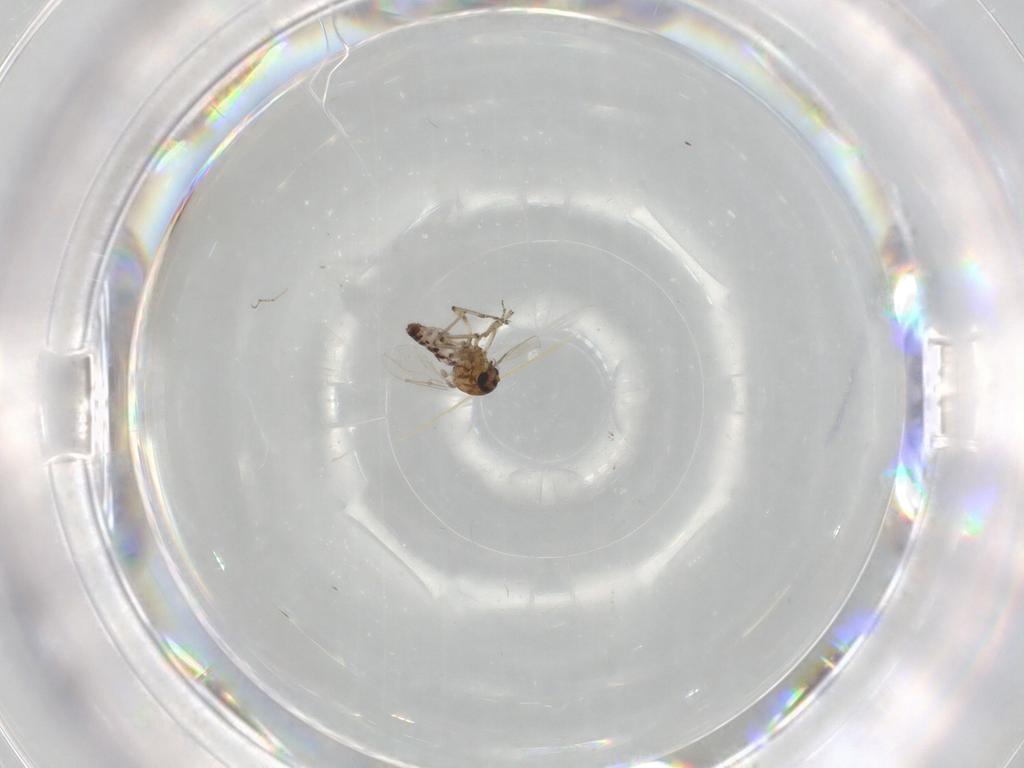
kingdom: Animalia
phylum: Arthropoda
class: Insecta
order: Diptera
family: Ceratopogonidae
